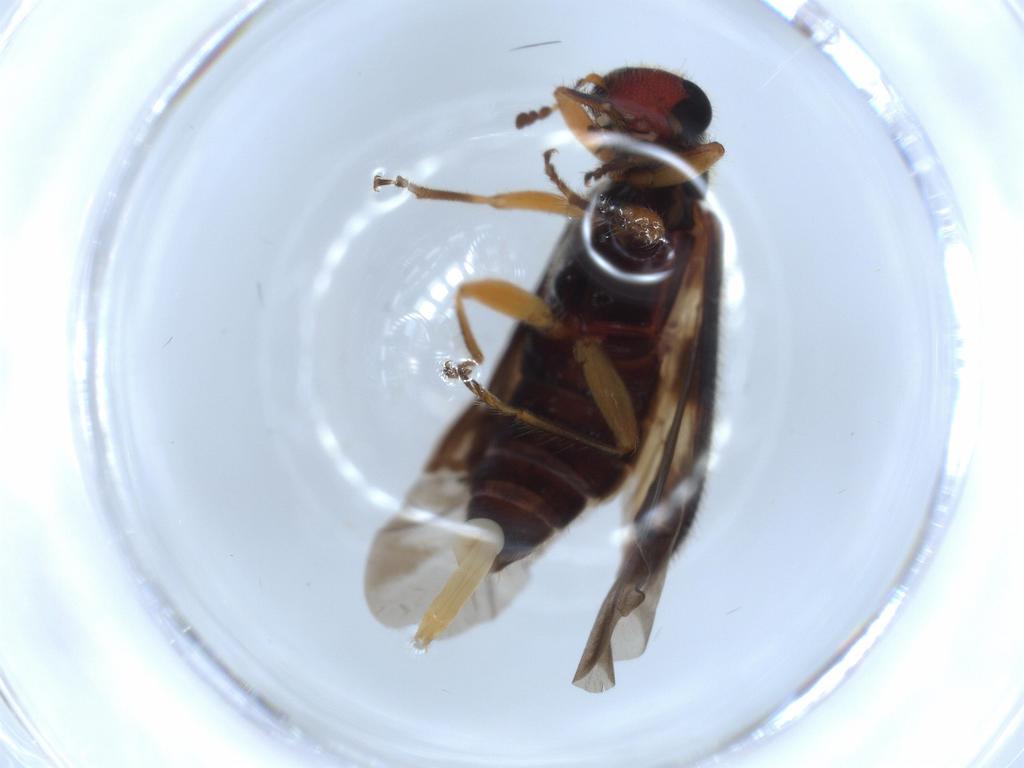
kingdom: Animalia
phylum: Arthropoda
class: Insecta
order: Coleoptera
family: Cleridae
